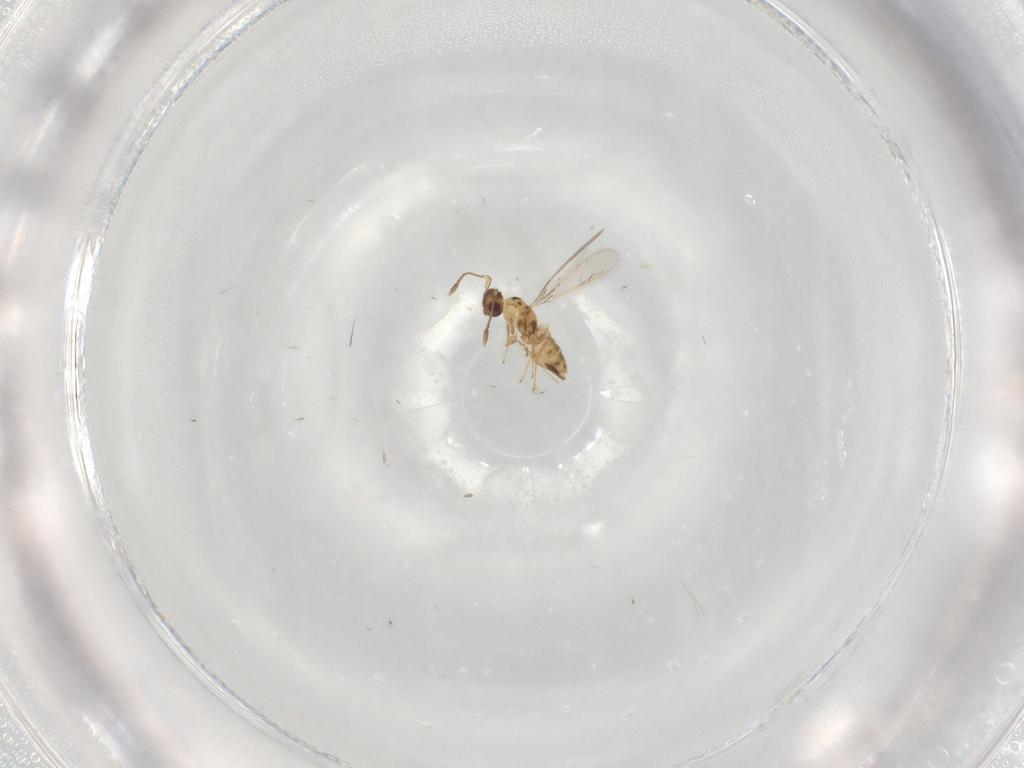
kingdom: Animalia
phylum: Arthropoda
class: Insecta
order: Hymenoptera
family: Mymaridae
